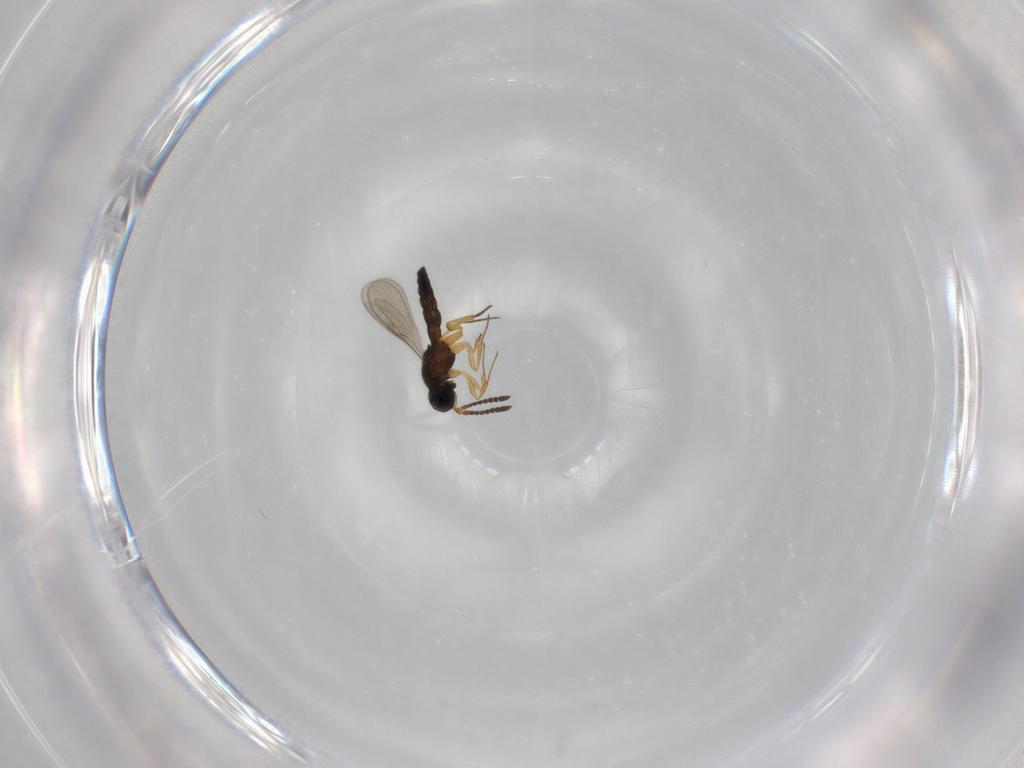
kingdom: Animalia
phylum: Arthropoda
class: Insecta
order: Hymenoptera
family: Scelionidae
